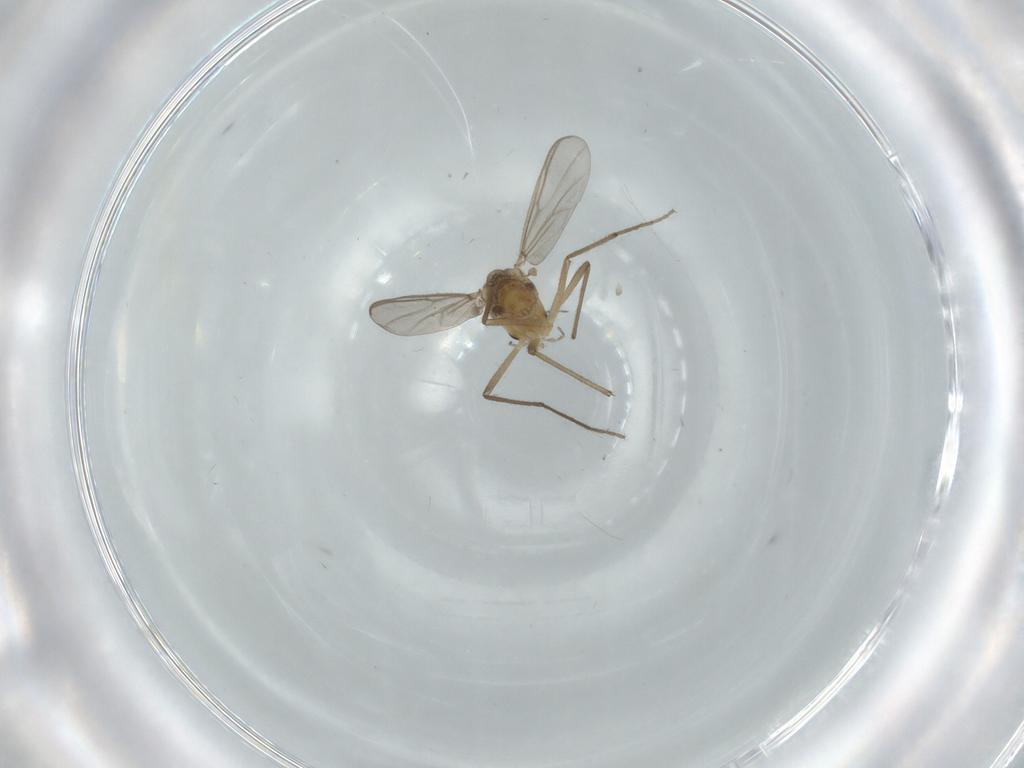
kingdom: Animalia
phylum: Arthropoda
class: Insecta
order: Diptera
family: Chironomidae
